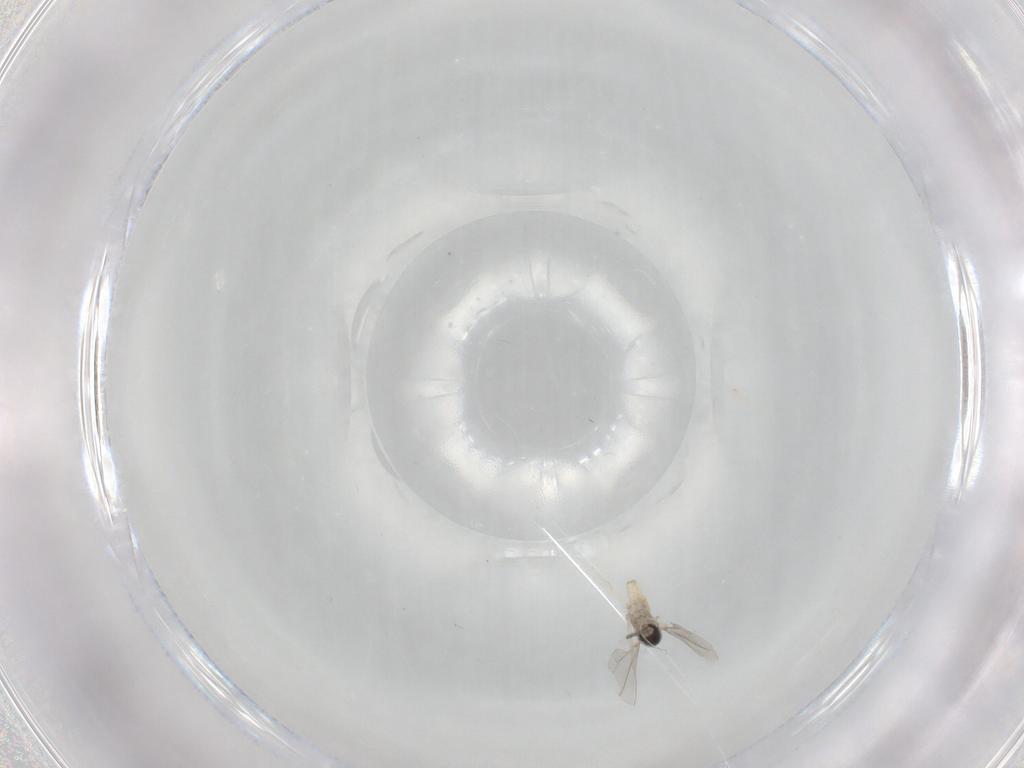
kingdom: Animalia
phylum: Arthropoda
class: Insecta
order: Diptera
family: Cecidomyiidae
